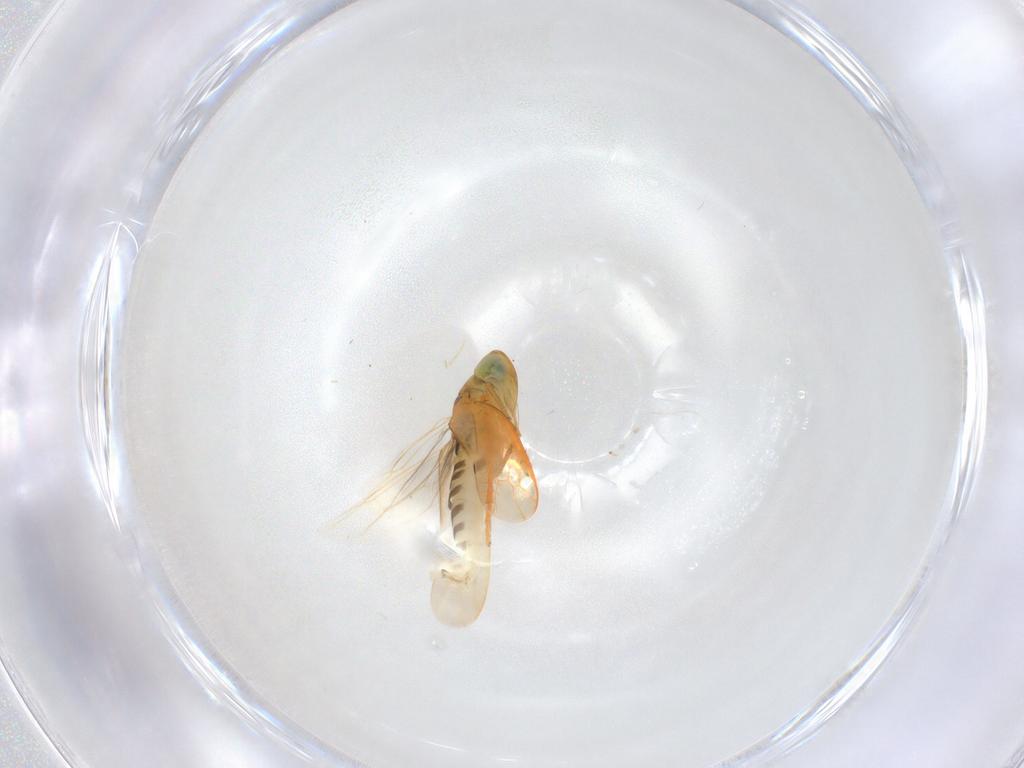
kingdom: Animalia
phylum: Arthropoda
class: Insecta
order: Hemiptera
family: Cicadellidae
